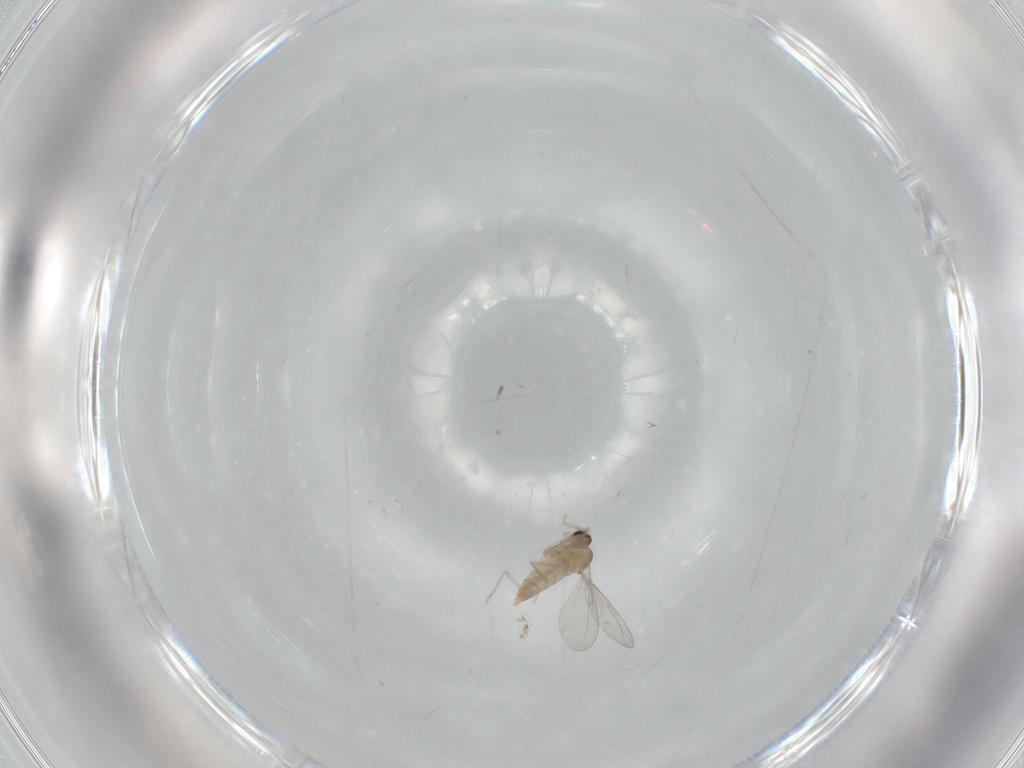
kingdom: Animalia
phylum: Arthropoda
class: Insecta
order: Diptera
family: Cecidomyiidae
